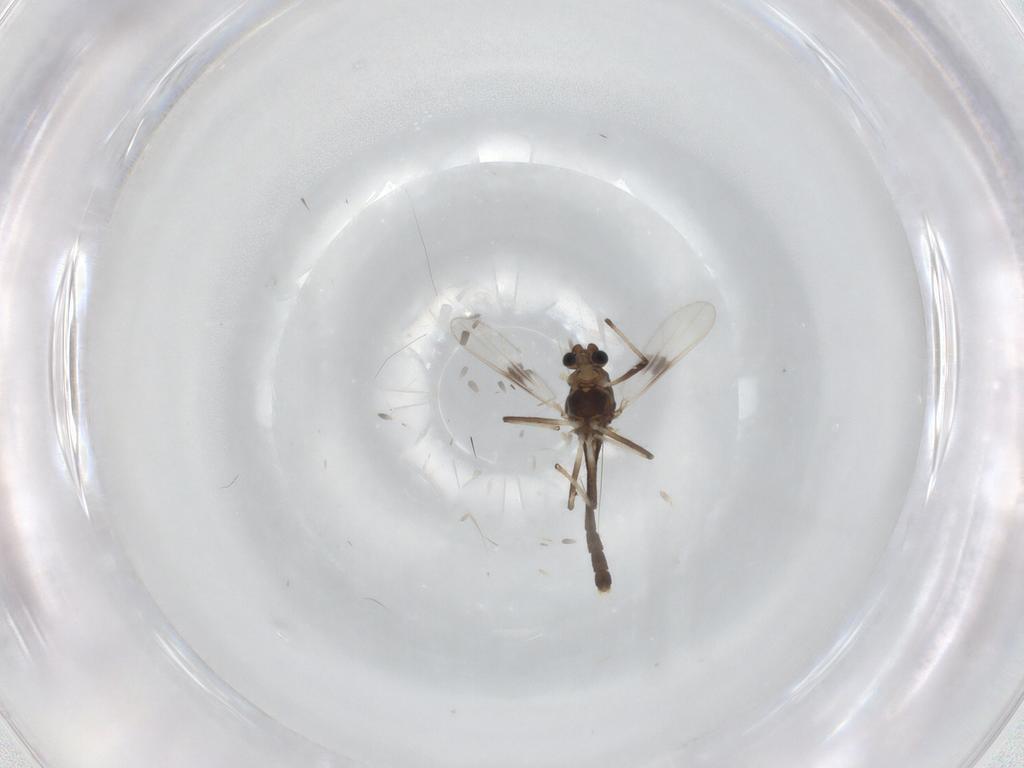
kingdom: Animalia
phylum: Arthropoda
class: Insecta
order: Diptera
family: Chironomidae
